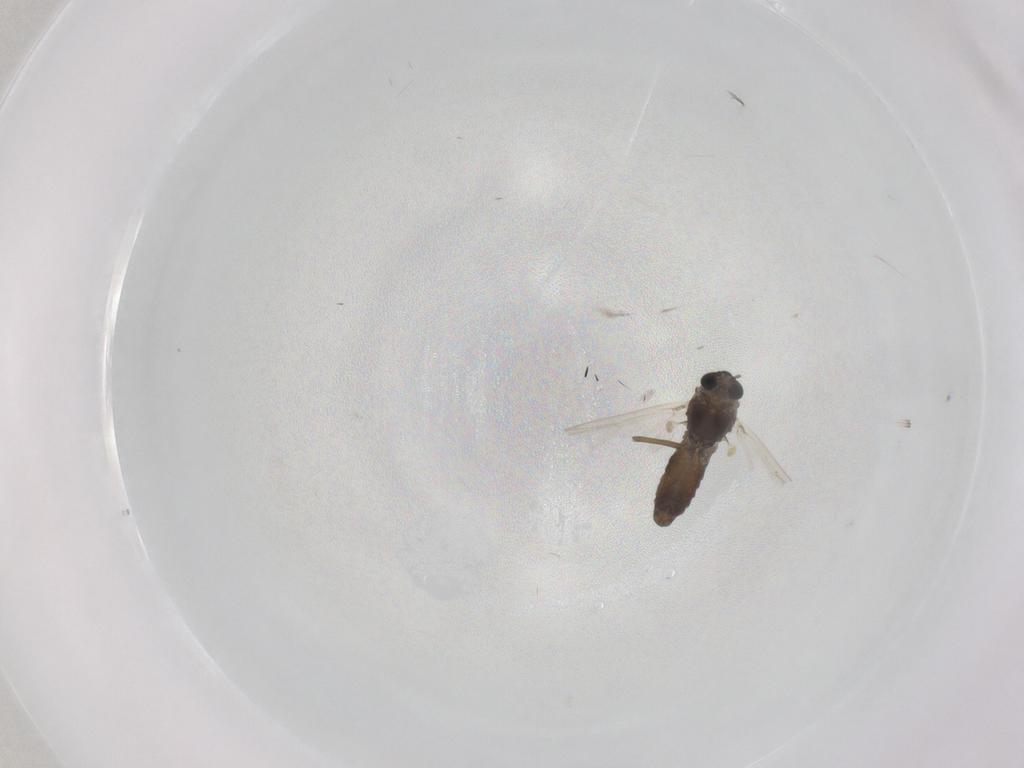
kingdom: Animalia
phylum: Arthropoda
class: Insecta
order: Diptera
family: Chironomidae
